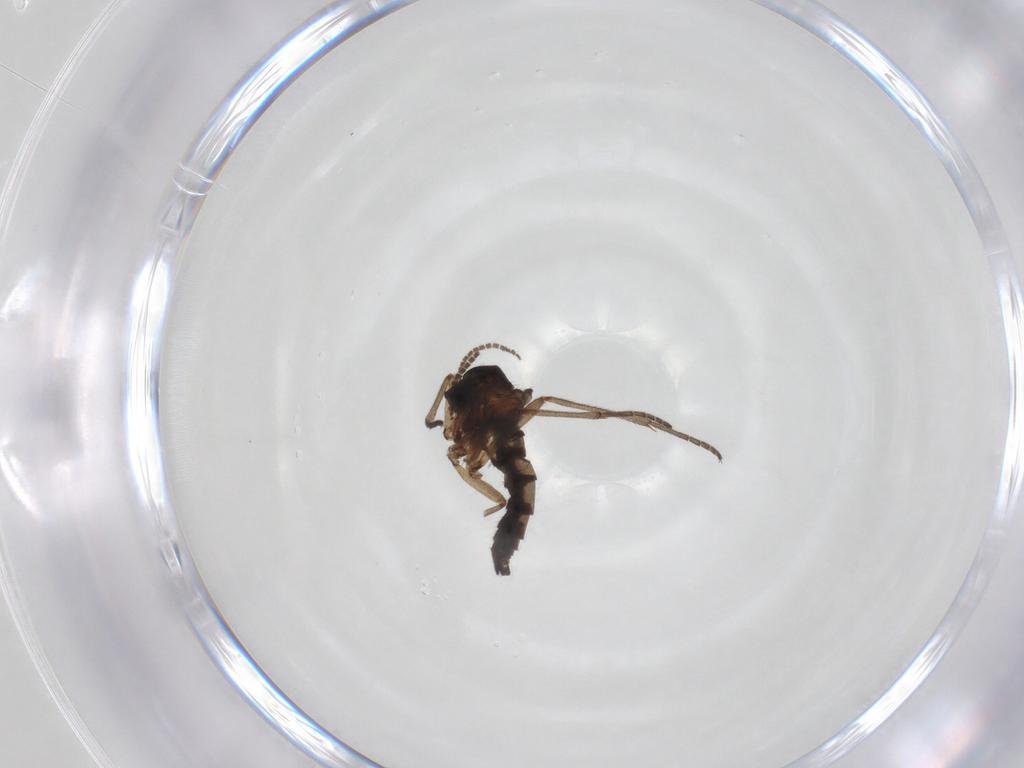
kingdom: Animalia
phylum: Arthropoda
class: Insecta
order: Diptera
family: Sciaridae
